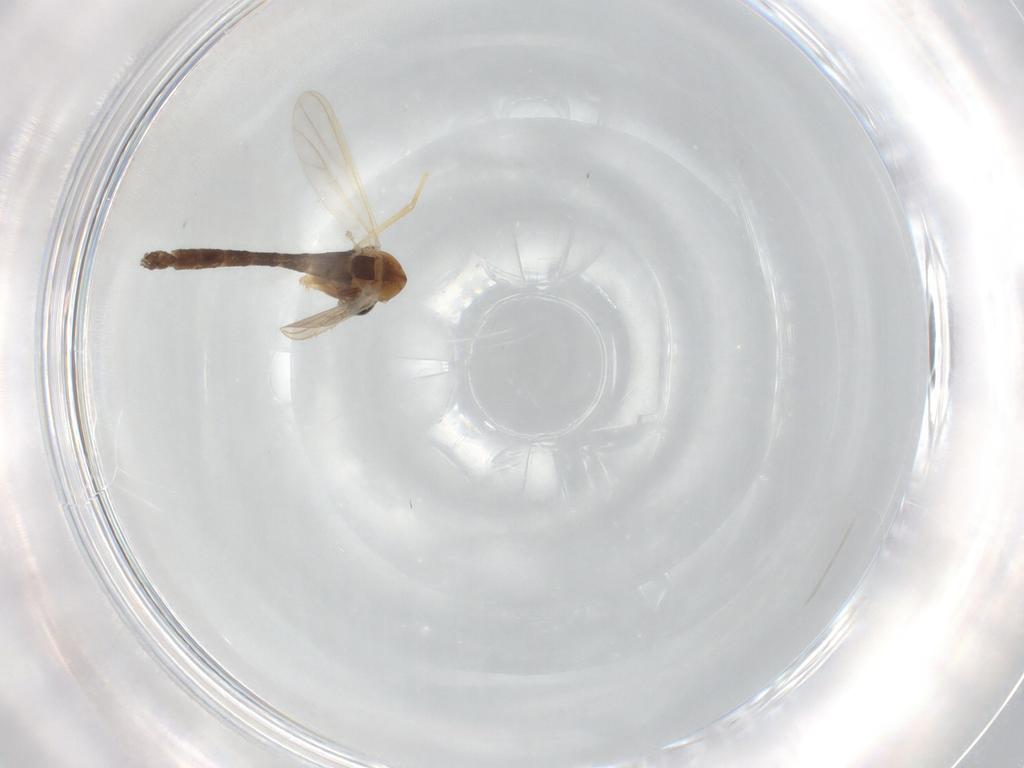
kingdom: Animalia
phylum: Arthropoda
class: Insecta
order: Diptera
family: Chironomidae
